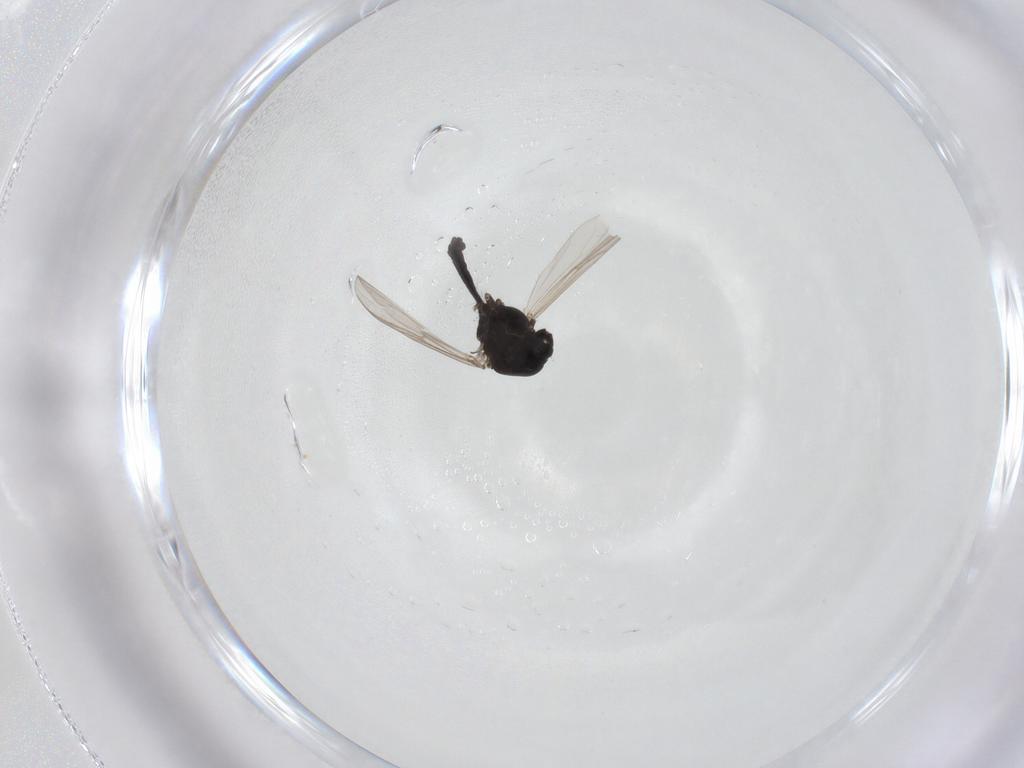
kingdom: Animalia
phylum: Arthropoda
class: Insecta
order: Diptera
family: Chironomidae
